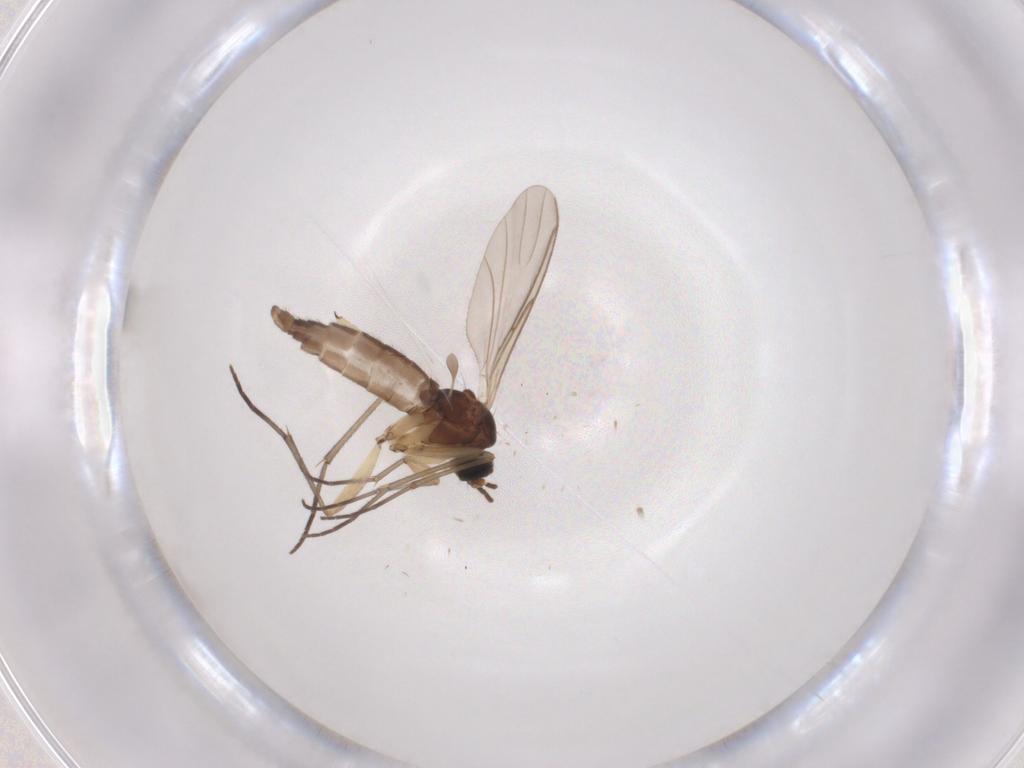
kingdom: Animalia
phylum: Arthropoda
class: Insecta
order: Diptera
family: Sciaridae
